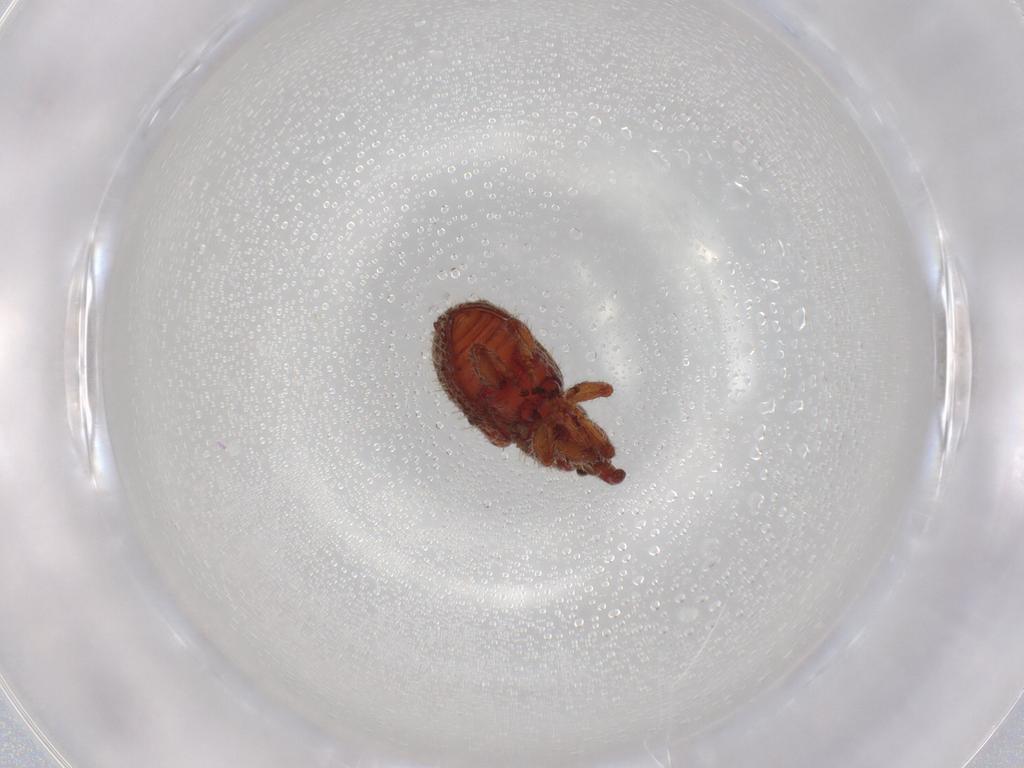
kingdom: Animalia
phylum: Arthropoda
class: Insecta
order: Coleoptera
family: Curculionidae
